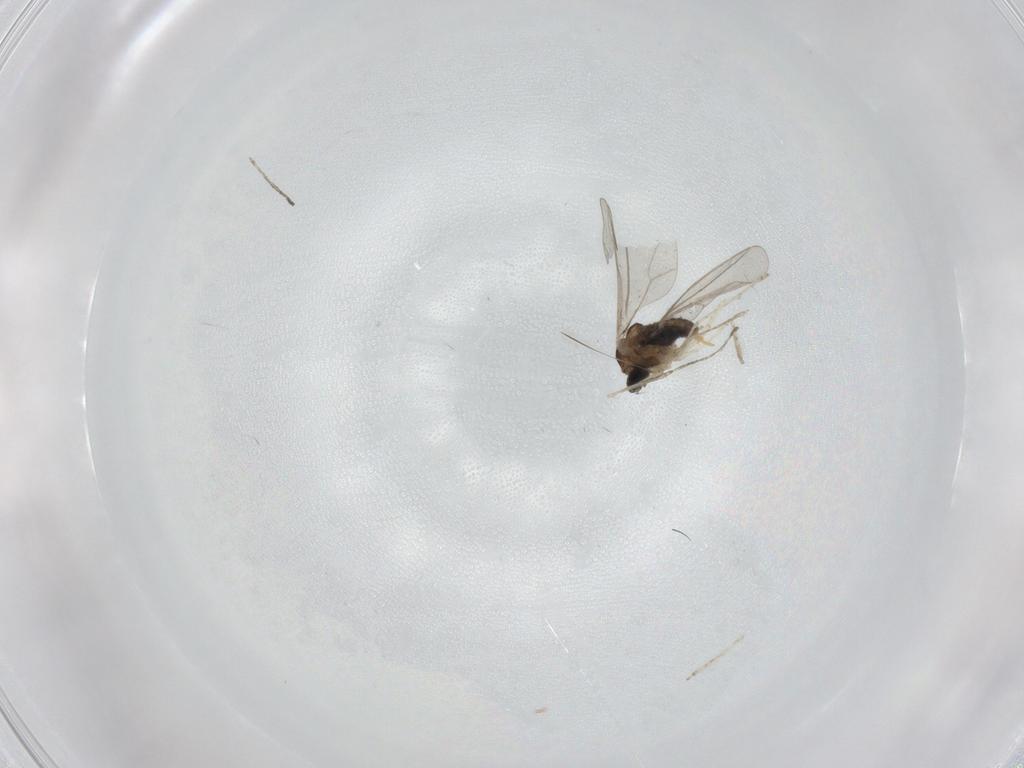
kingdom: Animalia
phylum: Arthropoda
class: Insecta
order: Diptera
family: Cecidomyiidae
